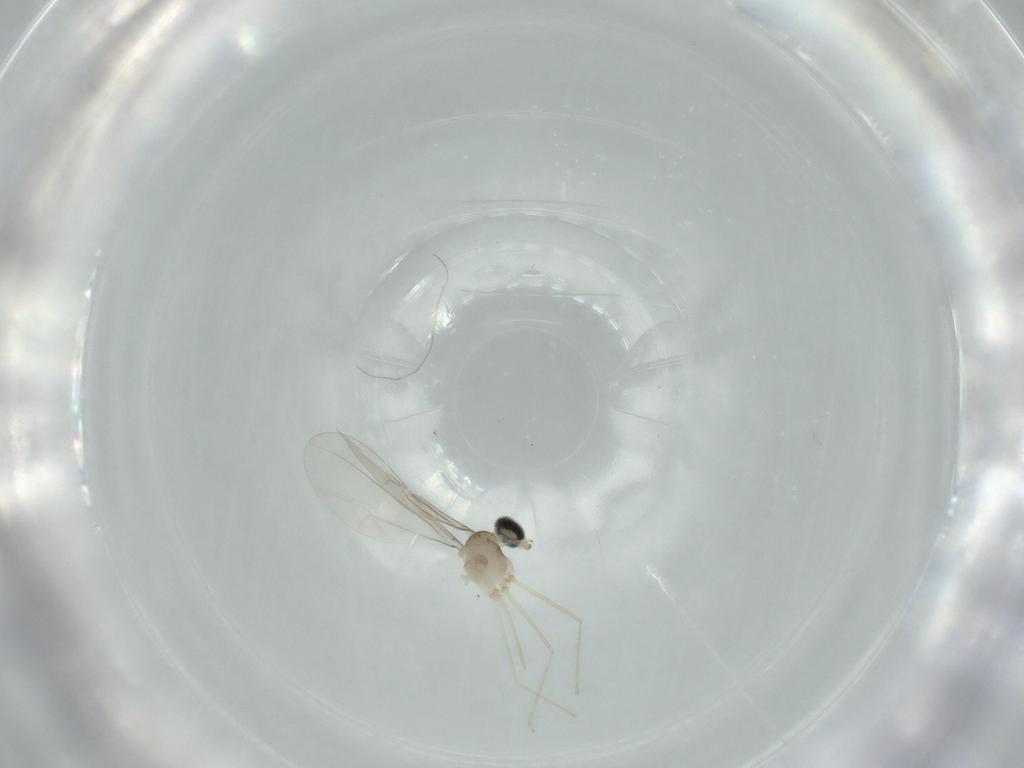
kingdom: Animalia
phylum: Arthropoda
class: Insecta
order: Diptera
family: Cecidomyiidae
